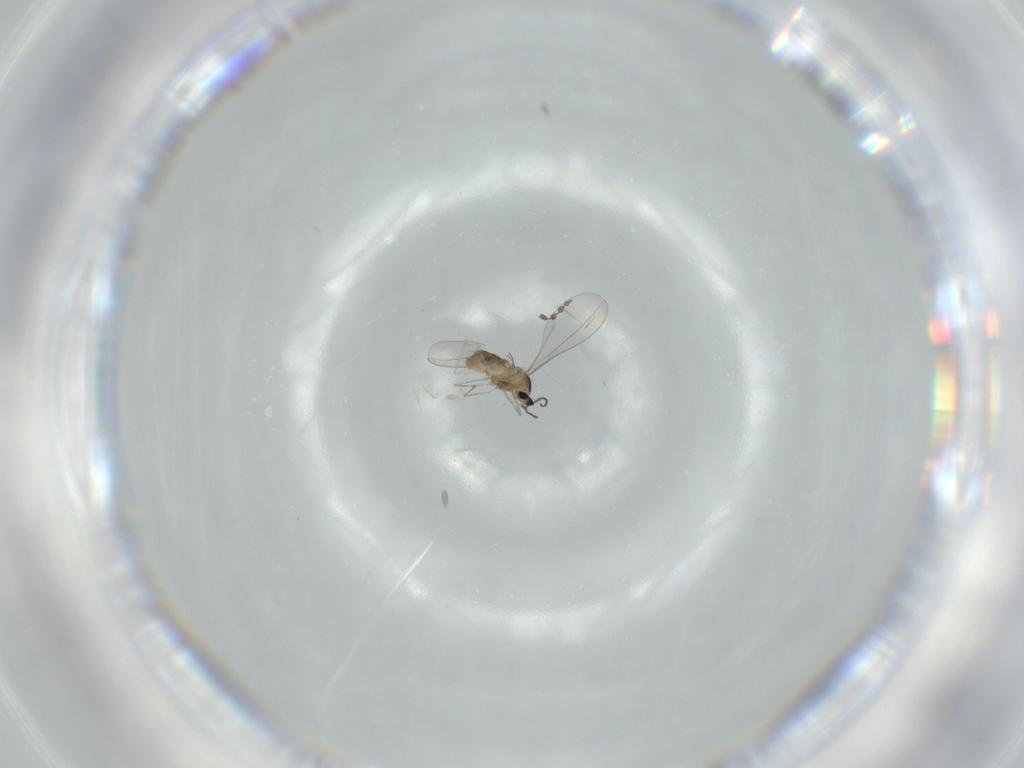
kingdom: Animalia
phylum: Arthropoda
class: Insecta
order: Diptera
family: Cecidomyiidae
